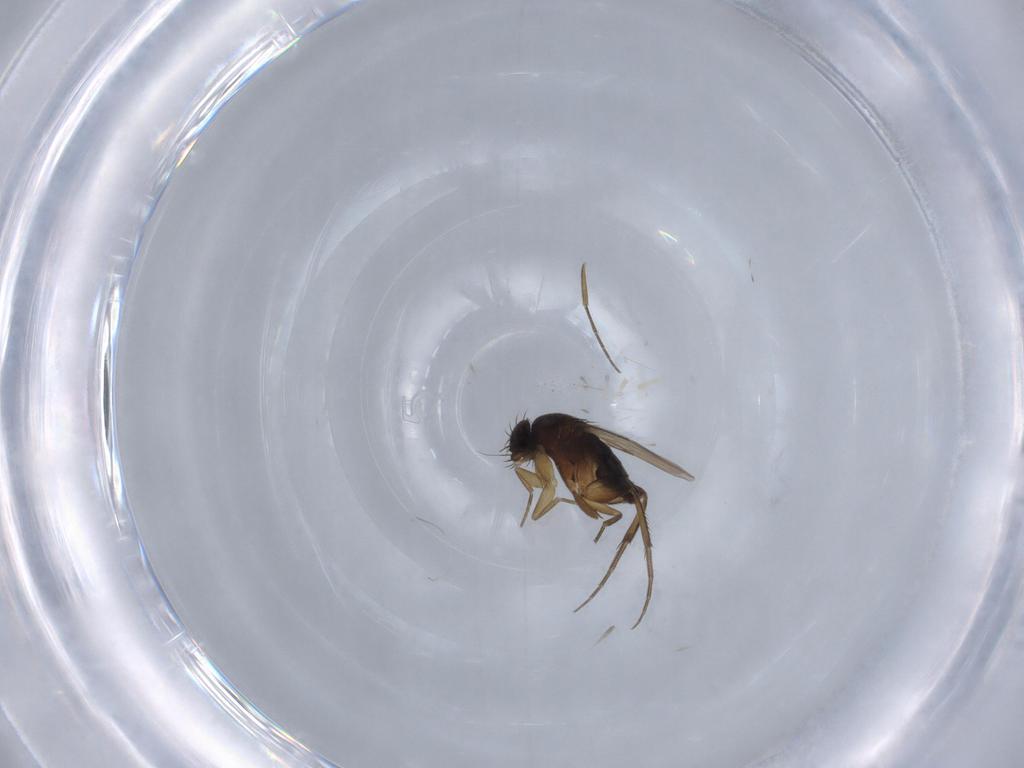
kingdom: Animalia
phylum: Arthropoda
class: Insecta
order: Diptera
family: Phoridae
